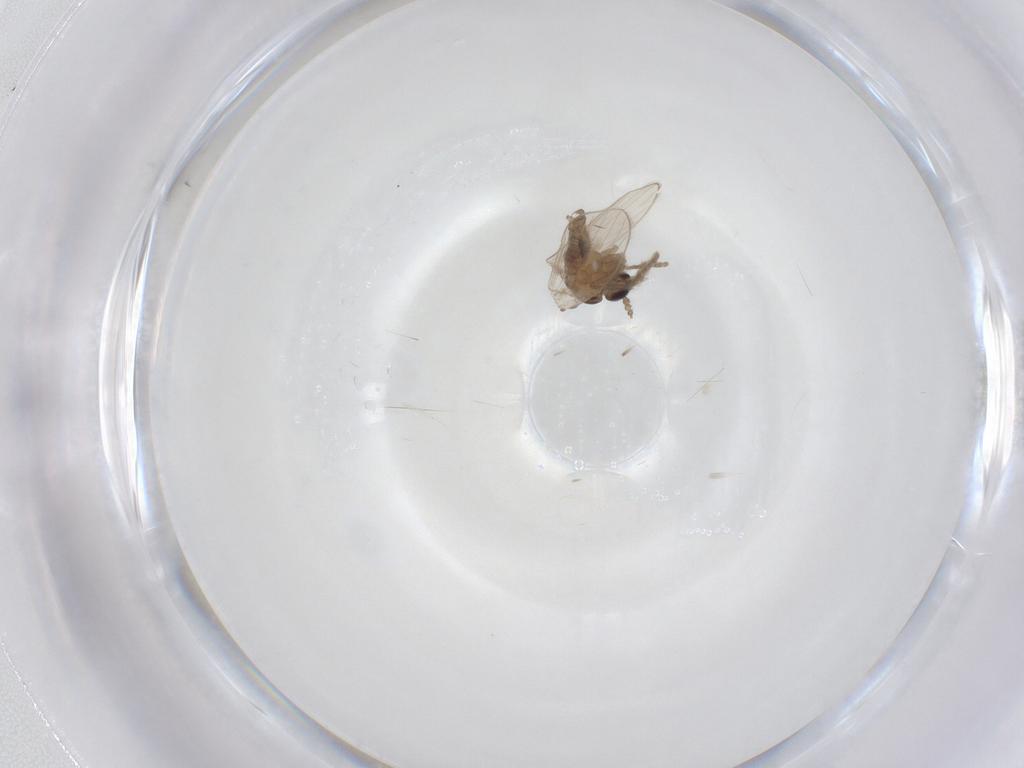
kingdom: Animalia
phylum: Arthropoda
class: Insecta
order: Diptera
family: Psychodidae
